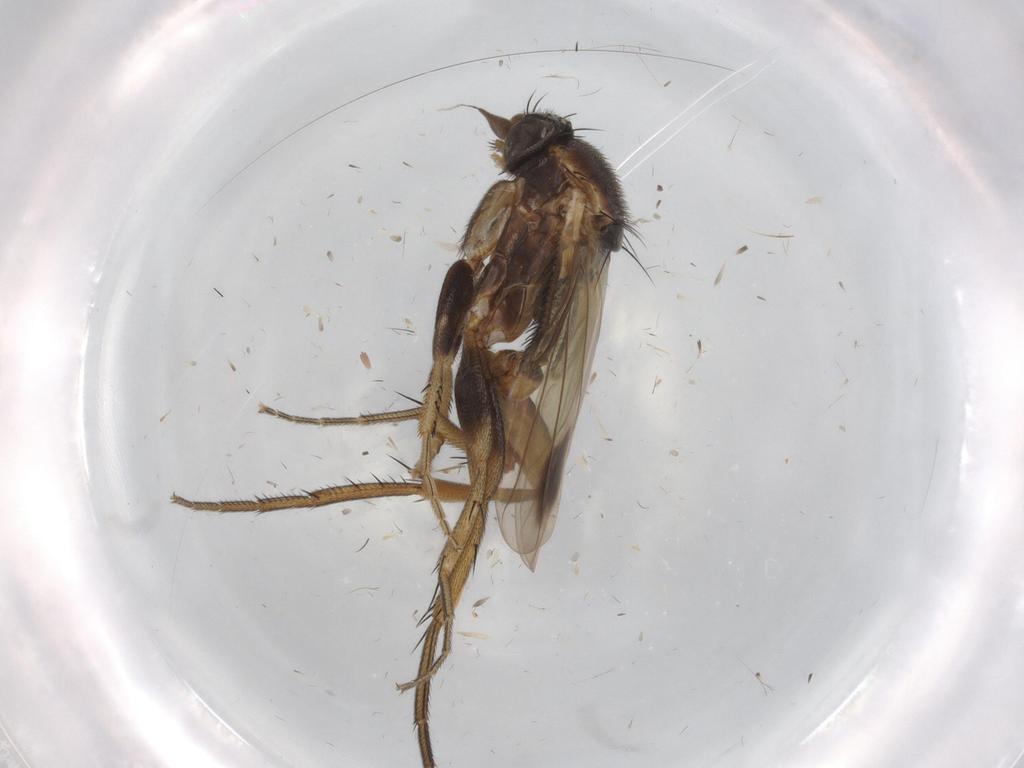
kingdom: Animalia
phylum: Arthropoda
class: Insecta
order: Diptera
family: Phoridae
